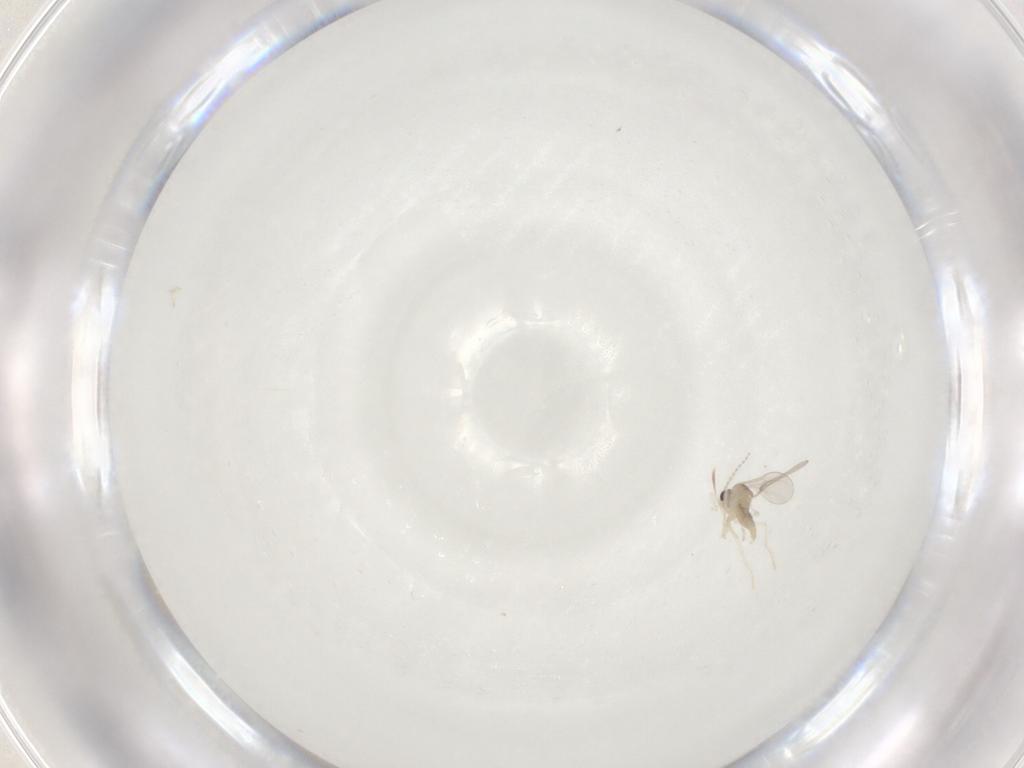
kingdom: Animalia
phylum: Arthropoda
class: Insecta
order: Diptera
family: Cecidomyiidae
